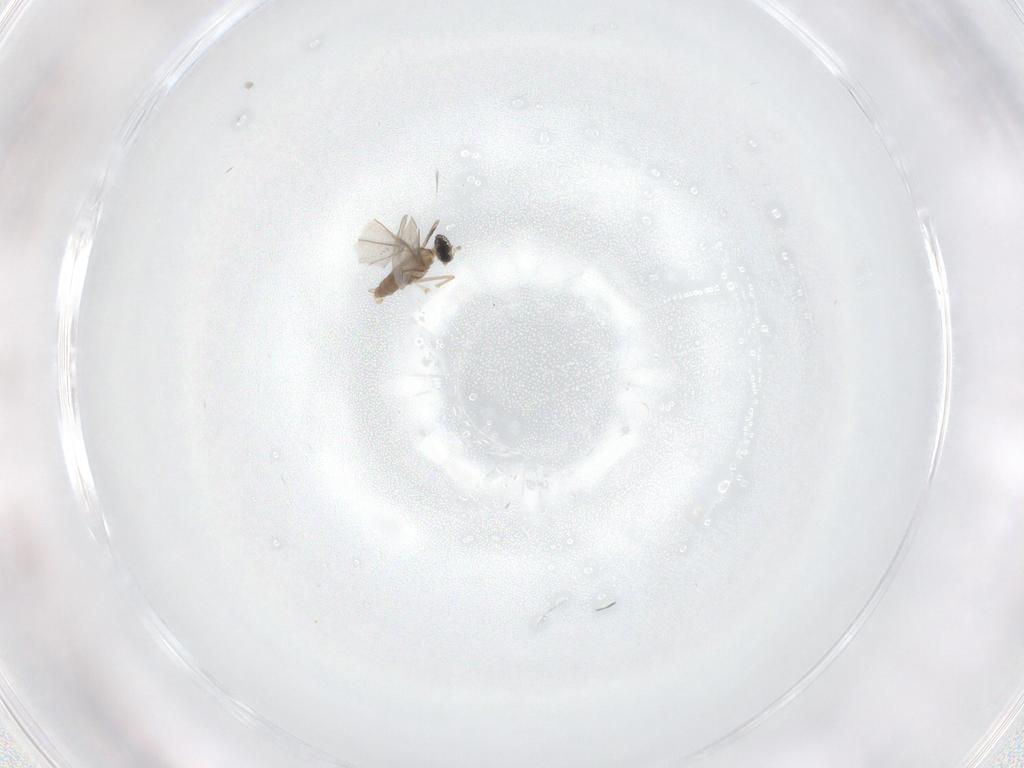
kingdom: Animalia
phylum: Arthropoda
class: Insecta
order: Diptera
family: Cecidomyiidae
